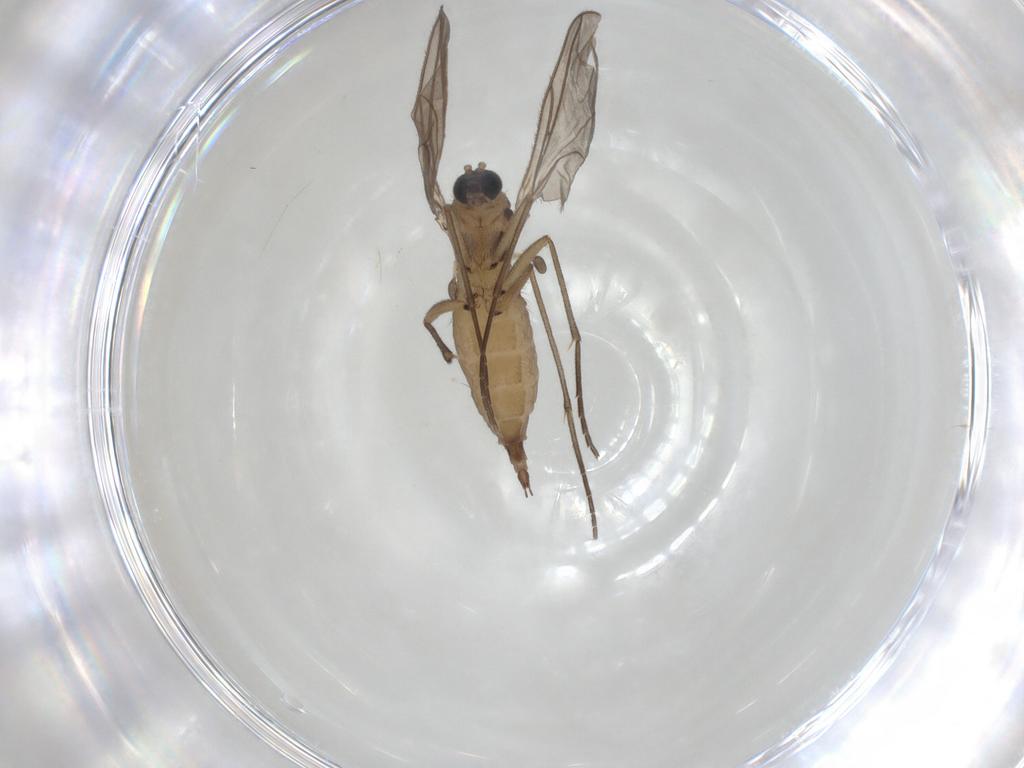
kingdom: Animalia
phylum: Arthropoda
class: Insecta
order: Diptera
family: Sciaridae
